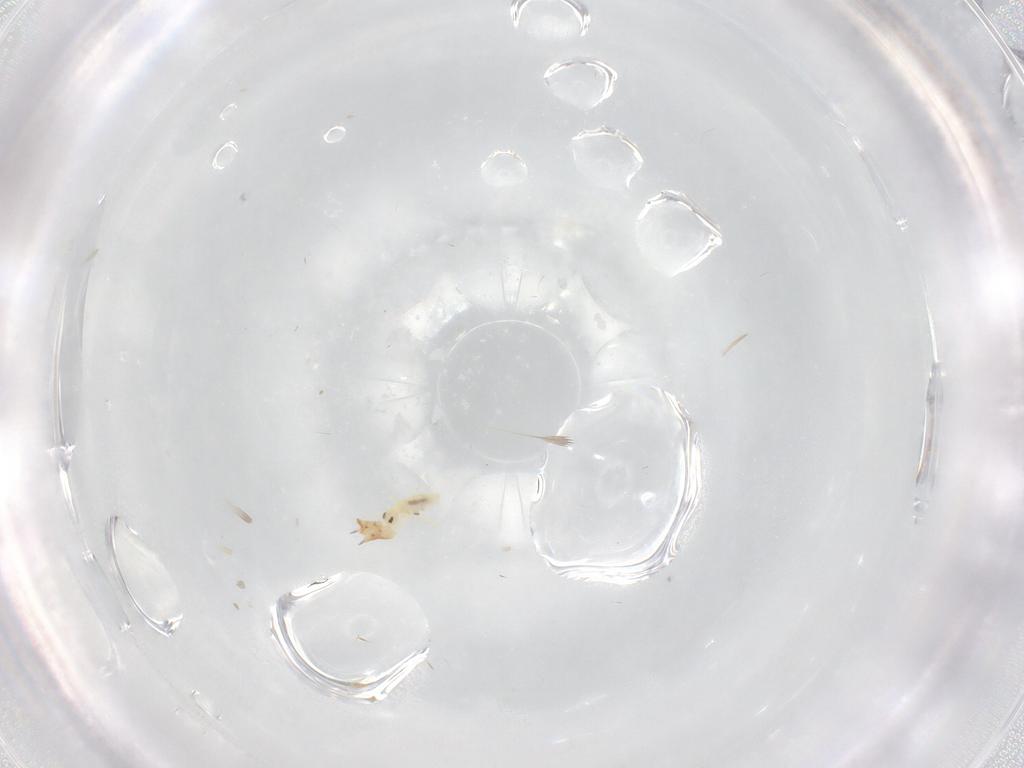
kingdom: Animalia
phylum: Arthropoda
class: Collembola
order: Entomobryomorpha
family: Paronellidae
